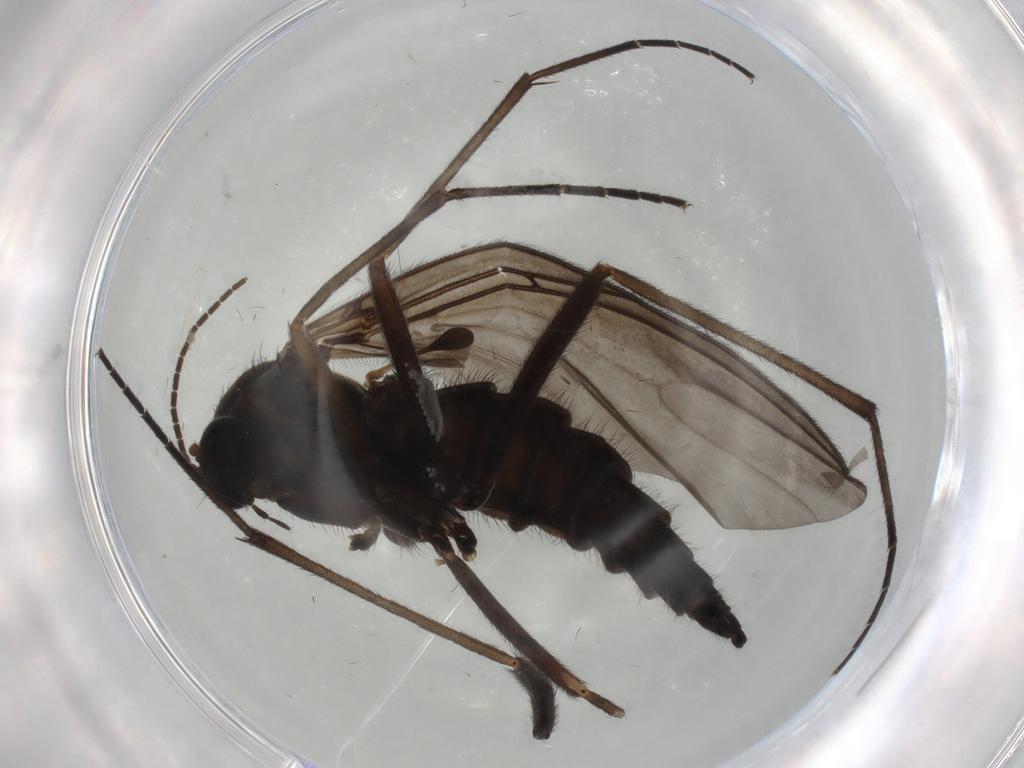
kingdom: Animalia
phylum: Arthropoda
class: Insecta
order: Diptera
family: Sciaridae
